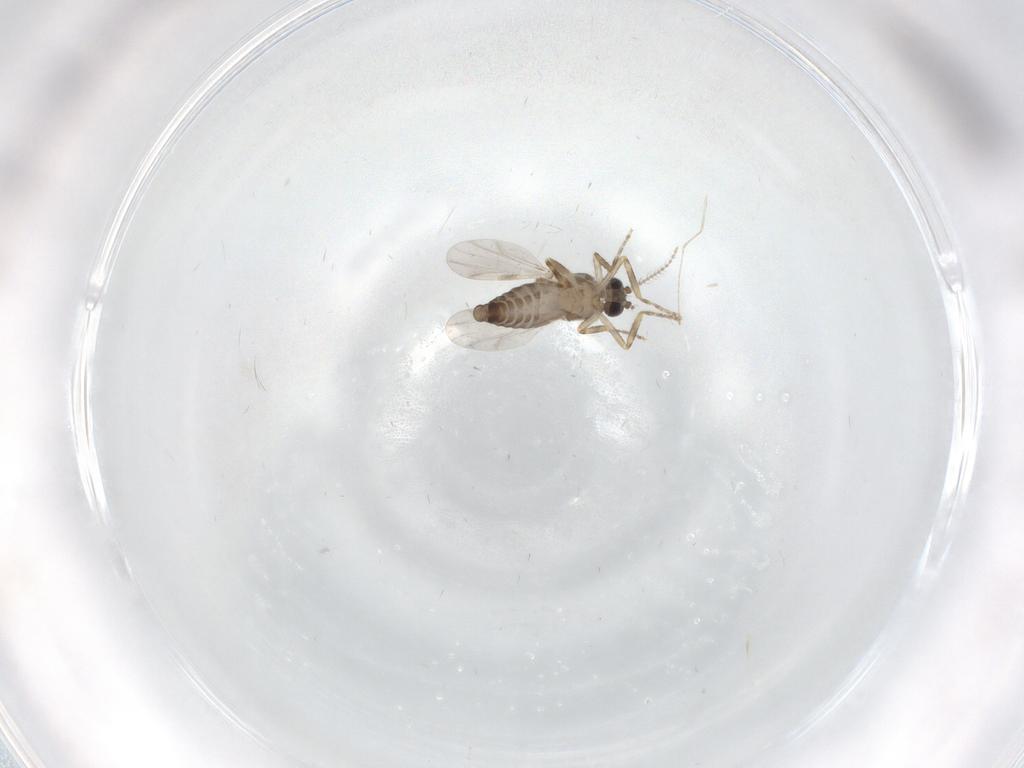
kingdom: Animalia
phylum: Arthropoda
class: Insecta
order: Diptera
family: Ceratopogonidae
